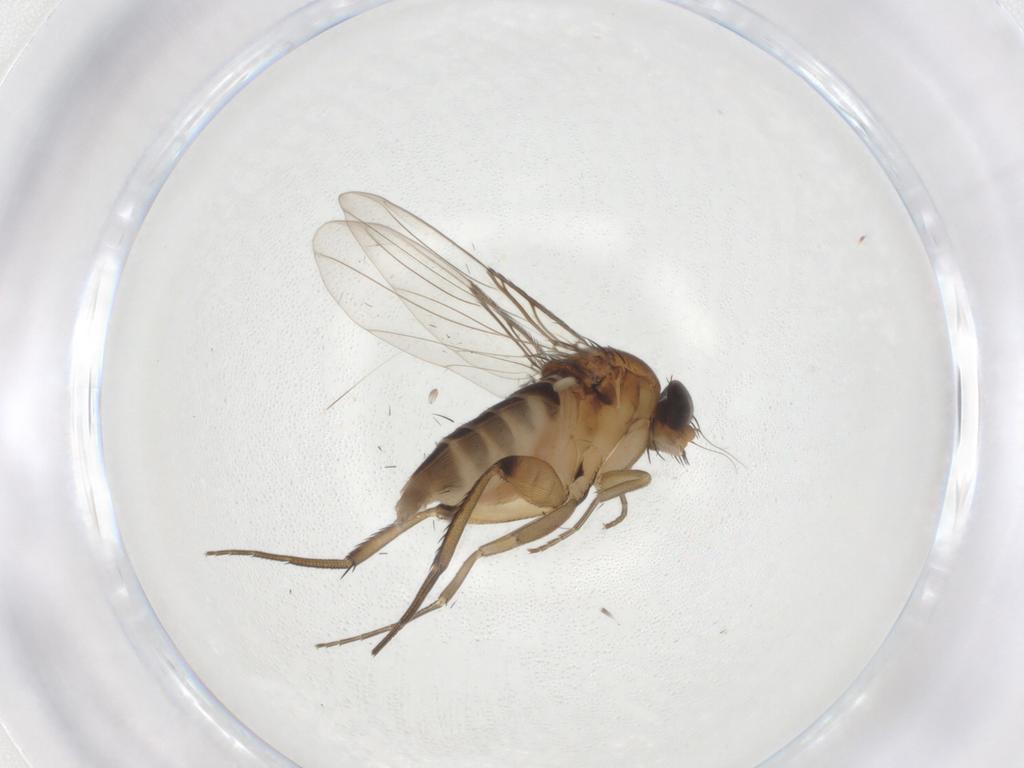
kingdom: Animalia
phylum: Arthropoda
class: Insecta
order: Diptera
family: Phoridae
